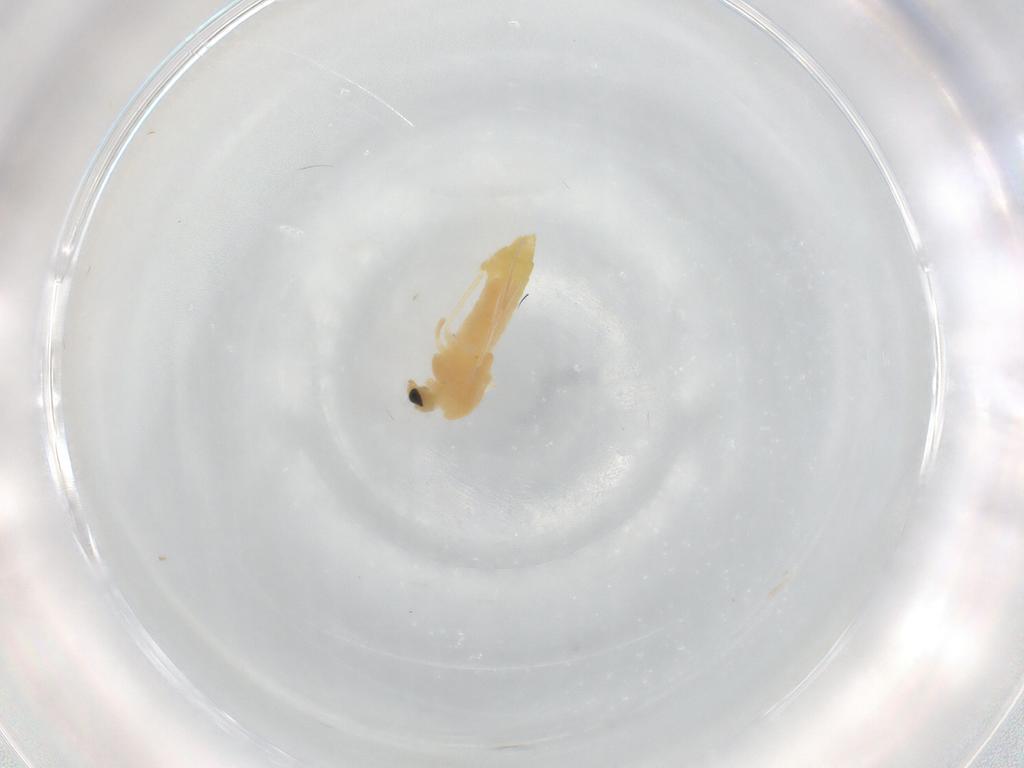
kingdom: Animalia
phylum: Arthropoda
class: Insecta
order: Diptera
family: Chironomidae
